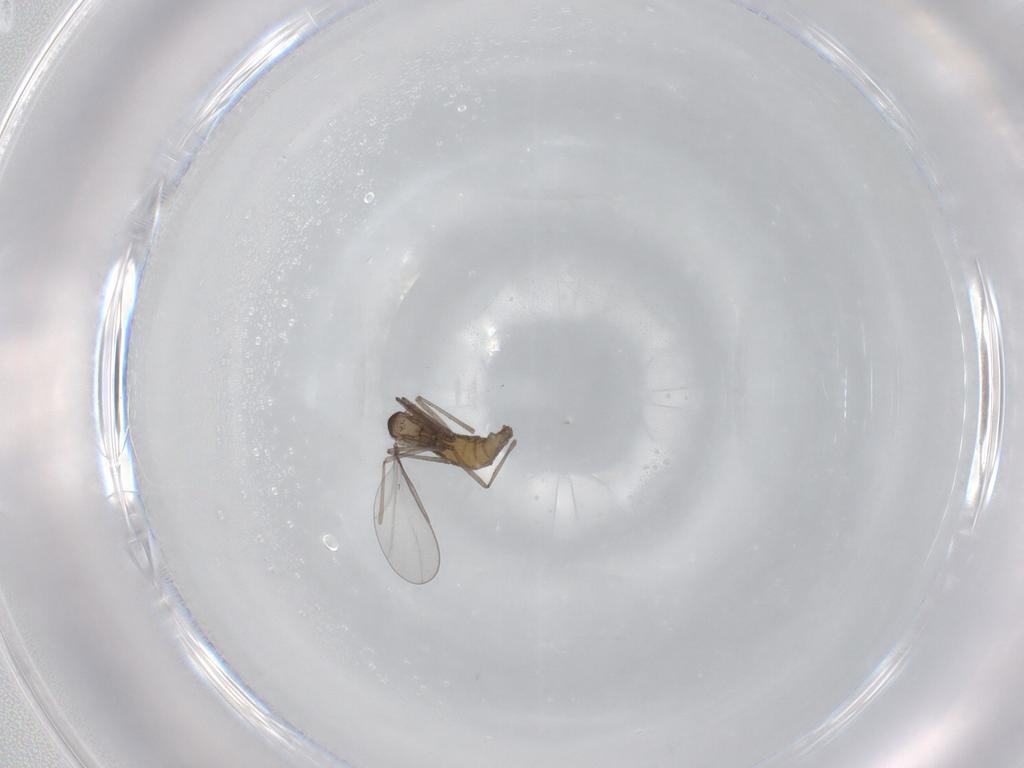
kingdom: Animalia
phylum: Arthropoda
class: Insecta
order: Diptera
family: Cecidomyiidae
